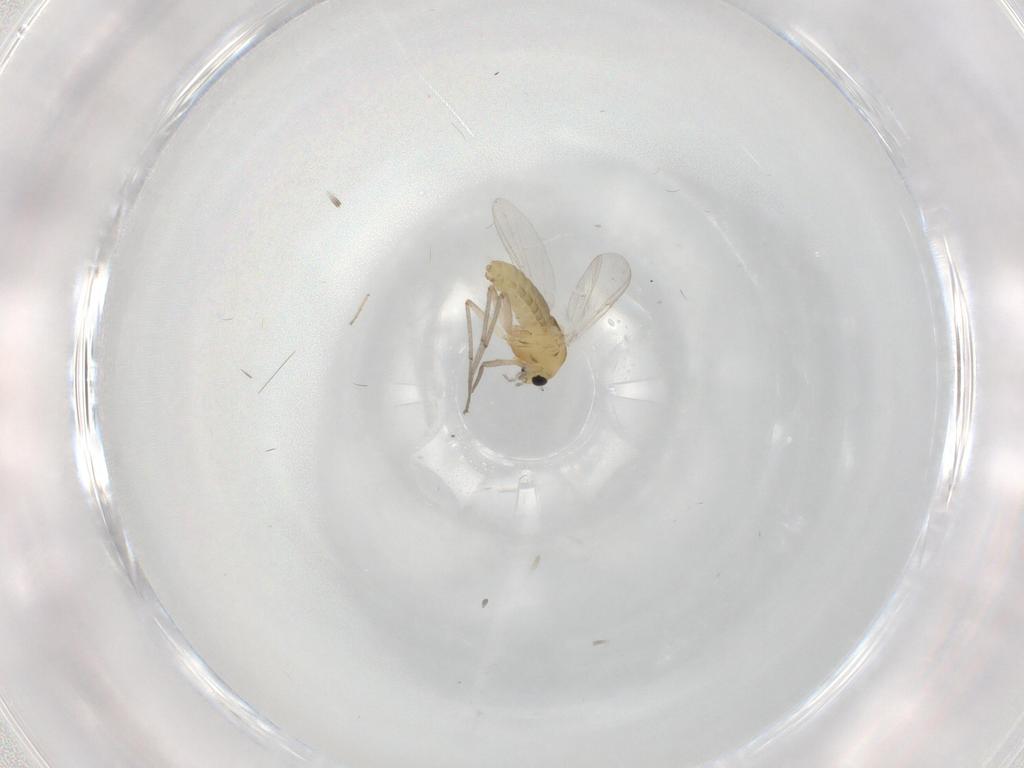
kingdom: Animalia
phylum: Arthropoda
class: Insecta
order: Diptera
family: Chironomidae
